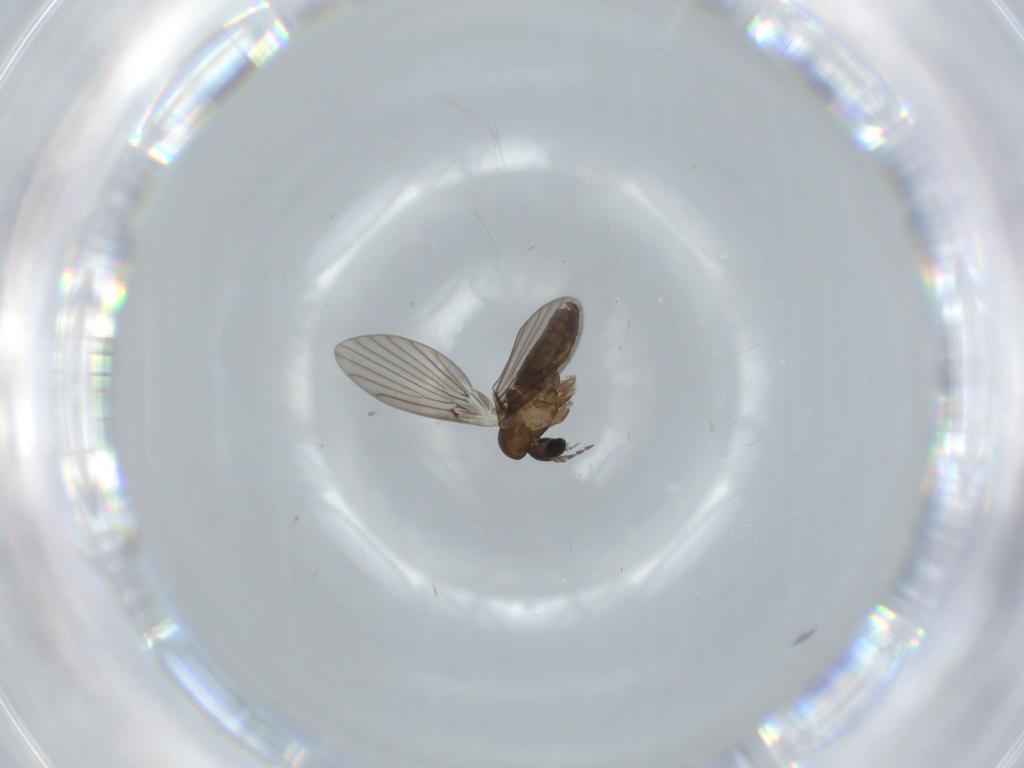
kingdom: Animalia
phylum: Arthropoda
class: Insecta
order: Diptera
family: Psychodidae
